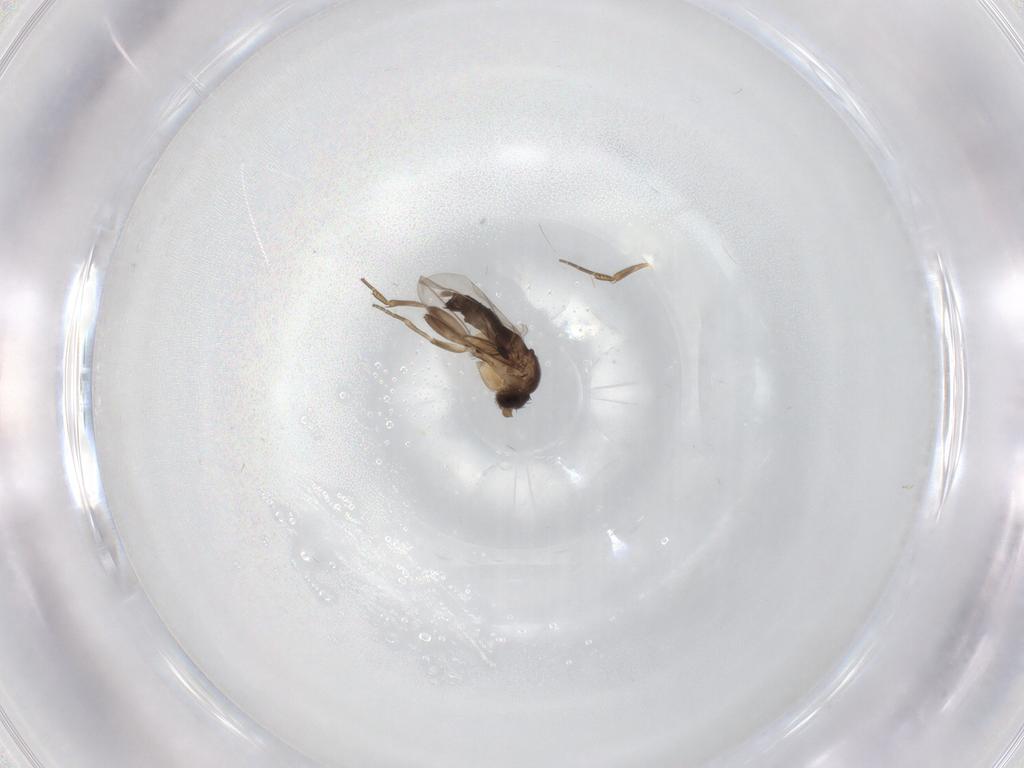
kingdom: Animalia
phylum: Arthropoda
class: Insecta
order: Diptera
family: Phoridae
